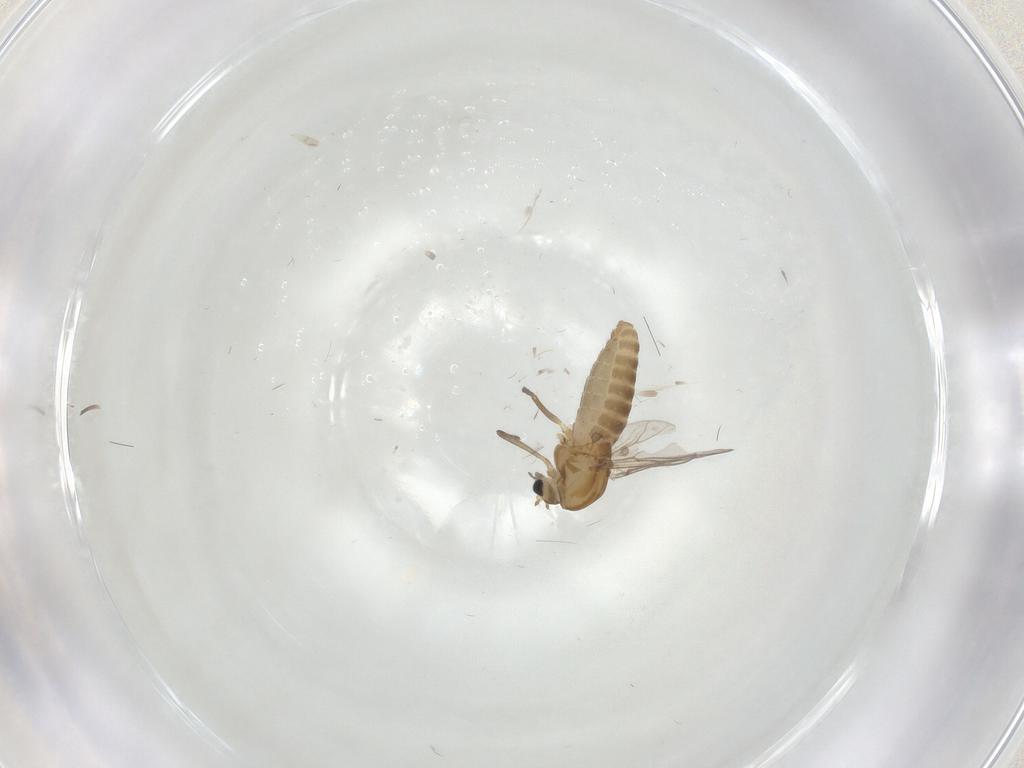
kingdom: Animalia
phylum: Arthropoda
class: Insecta
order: Diptera
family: Chironomidae
